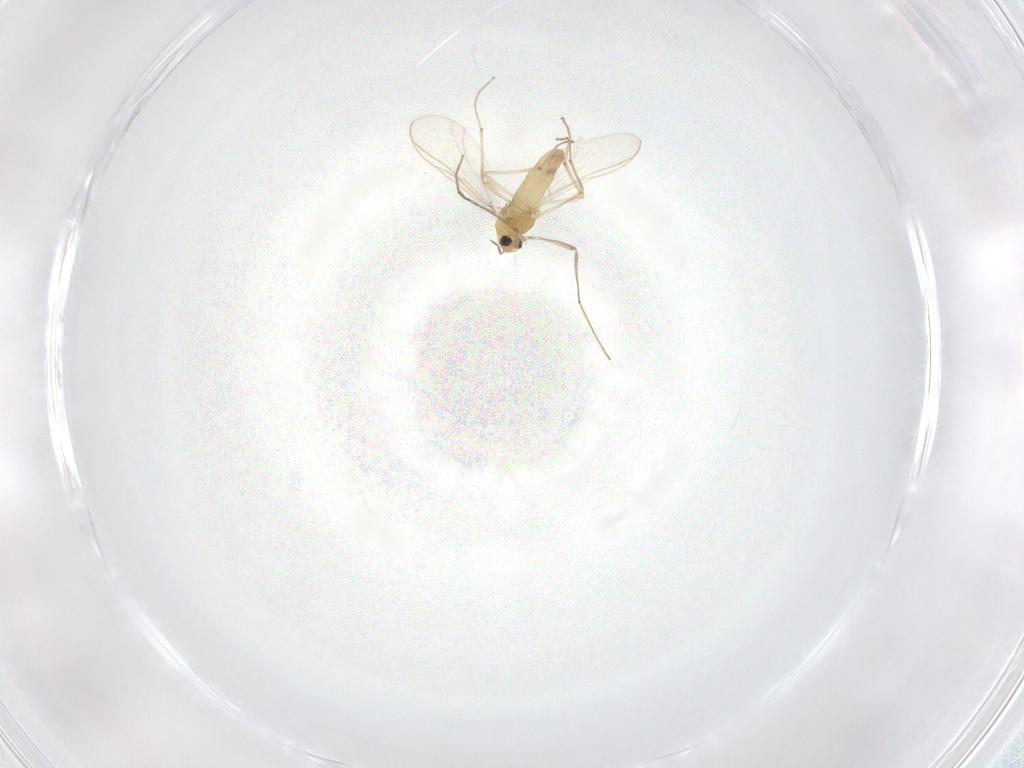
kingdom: Animalia
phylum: Arthropoda
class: Insecta
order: Diptera
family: Chironomidae
